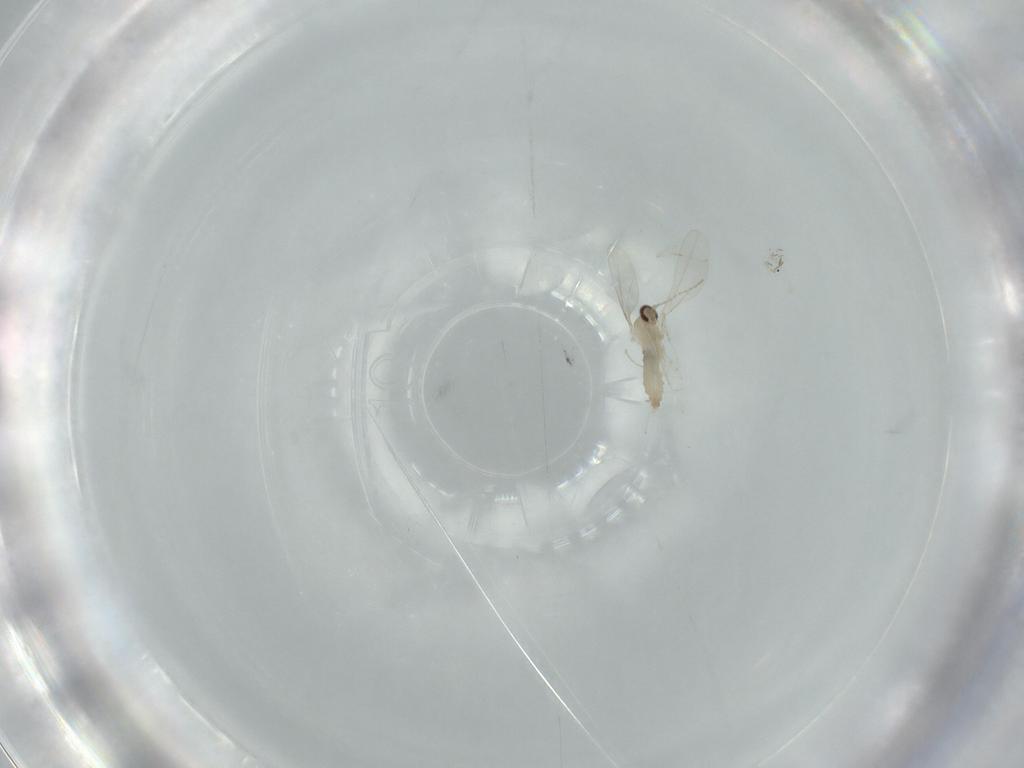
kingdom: Animalia
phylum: Arthropoda
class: Insecta
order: Diptera
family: Cecidomyiidae
